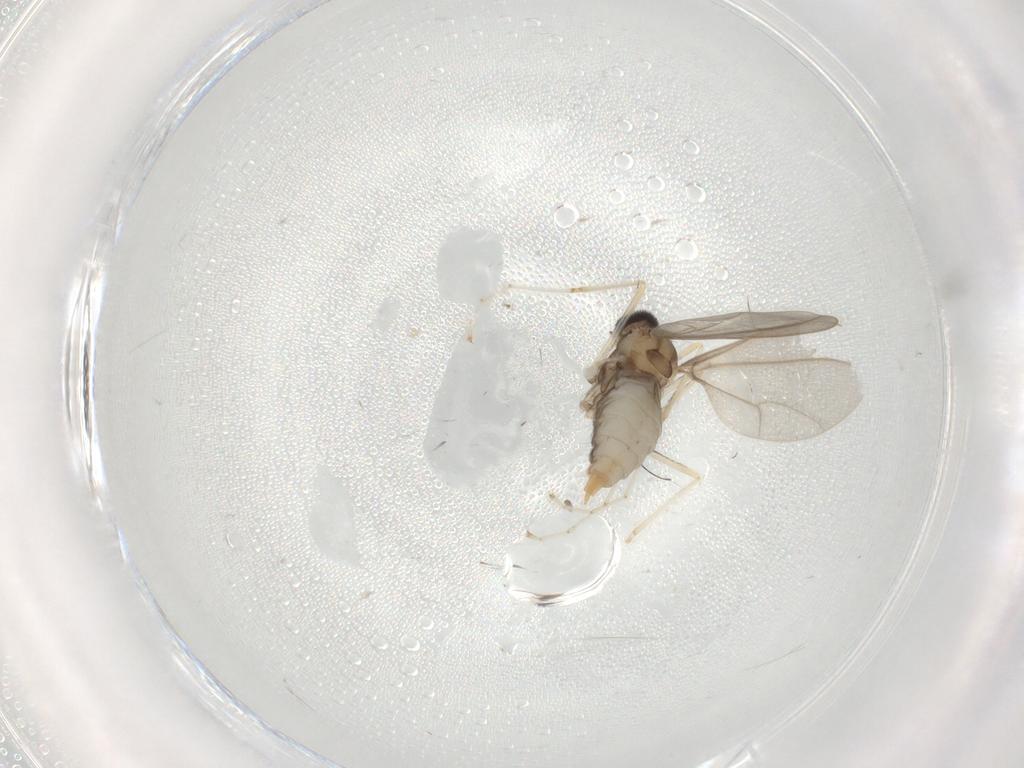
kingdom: Animalia
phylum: Arthropoda
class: Insecta
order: Diptera
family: Cecidomyiidae
